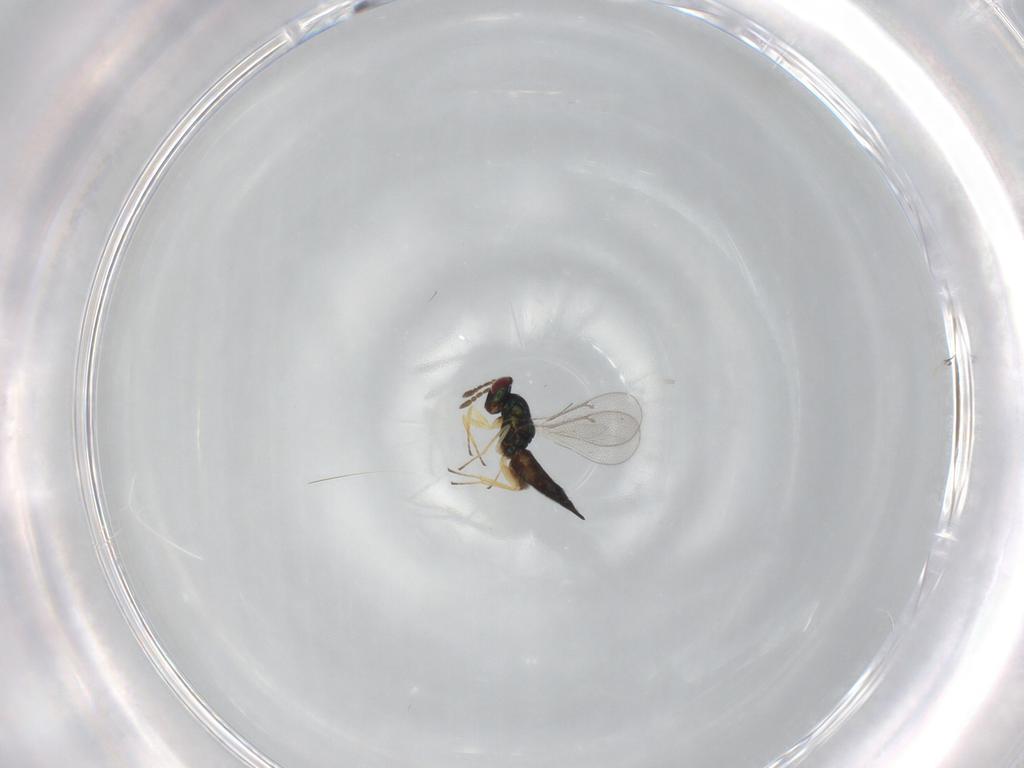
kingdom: Animalia
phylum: Arthropoda
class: Insecta
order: Hymenoptera
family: Eulophidae
